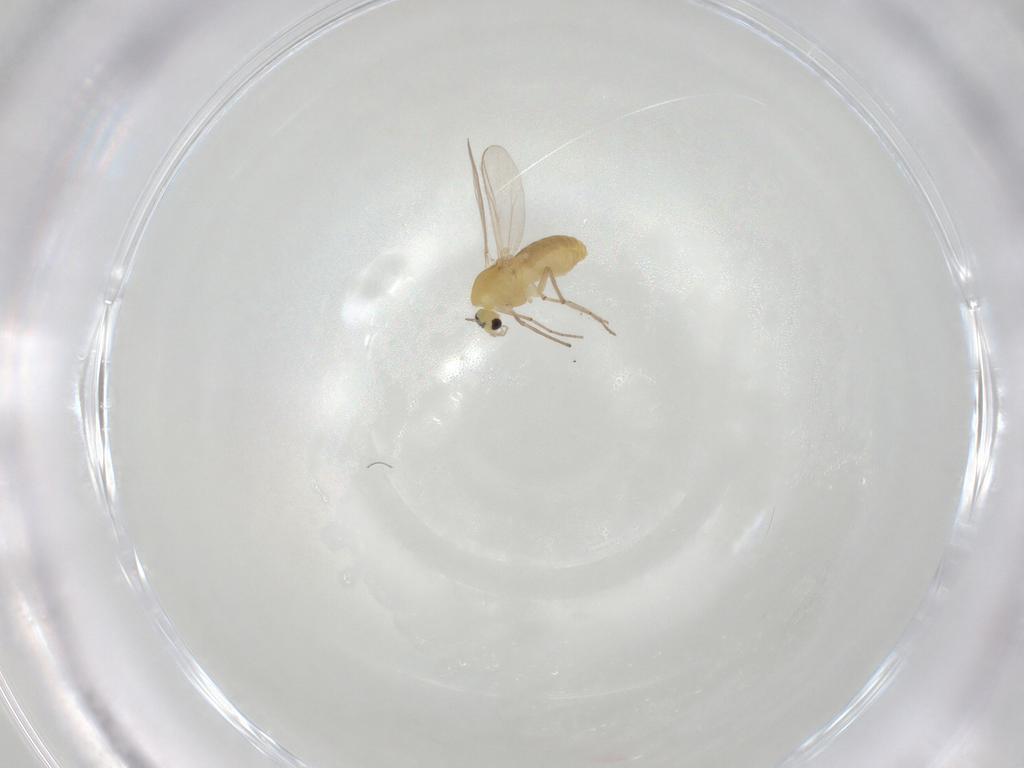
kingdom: Animalia
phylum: Arthropoda
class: Insecta
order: Diptera
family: Chironomidae
